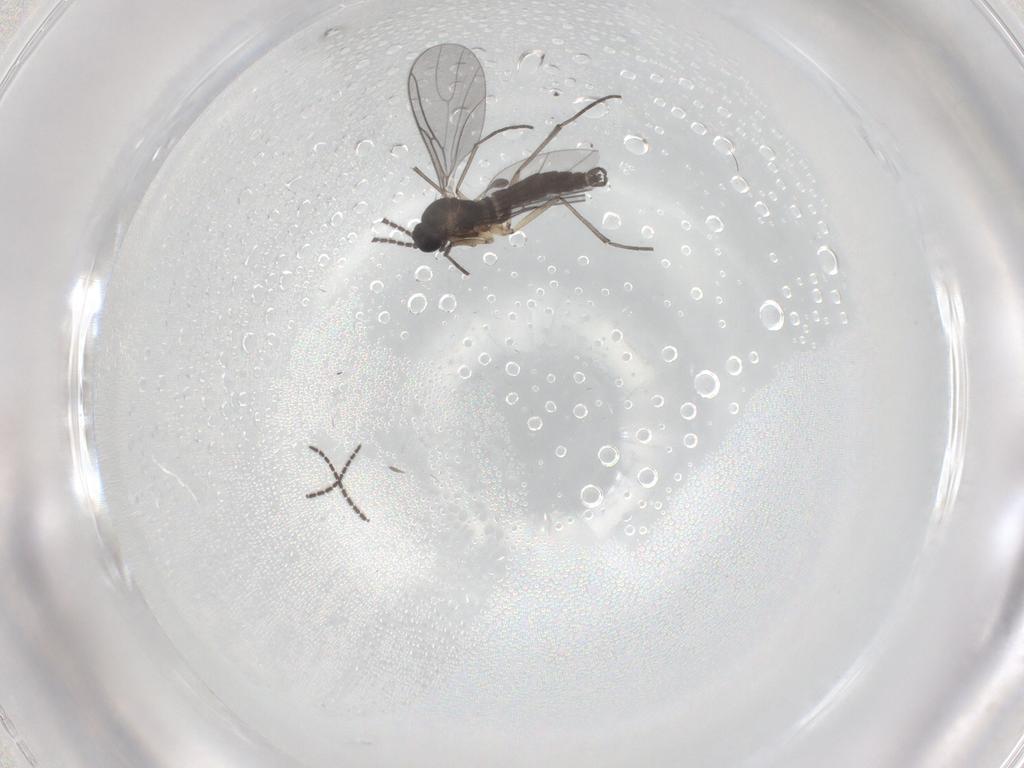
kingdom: Animalia
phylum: Arthropoda
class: Insecta
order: Diptera
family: Sciaridae
